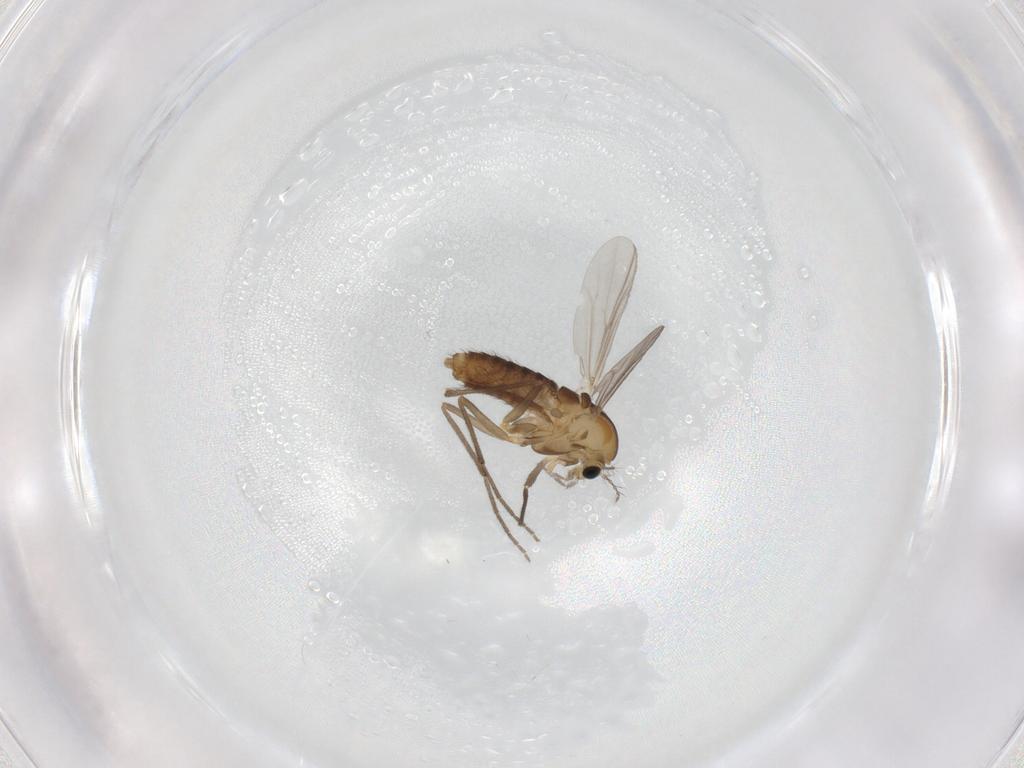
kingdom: Animalia
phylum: Arthropoda
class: Insecta
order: Diptera
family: Chironomidae
